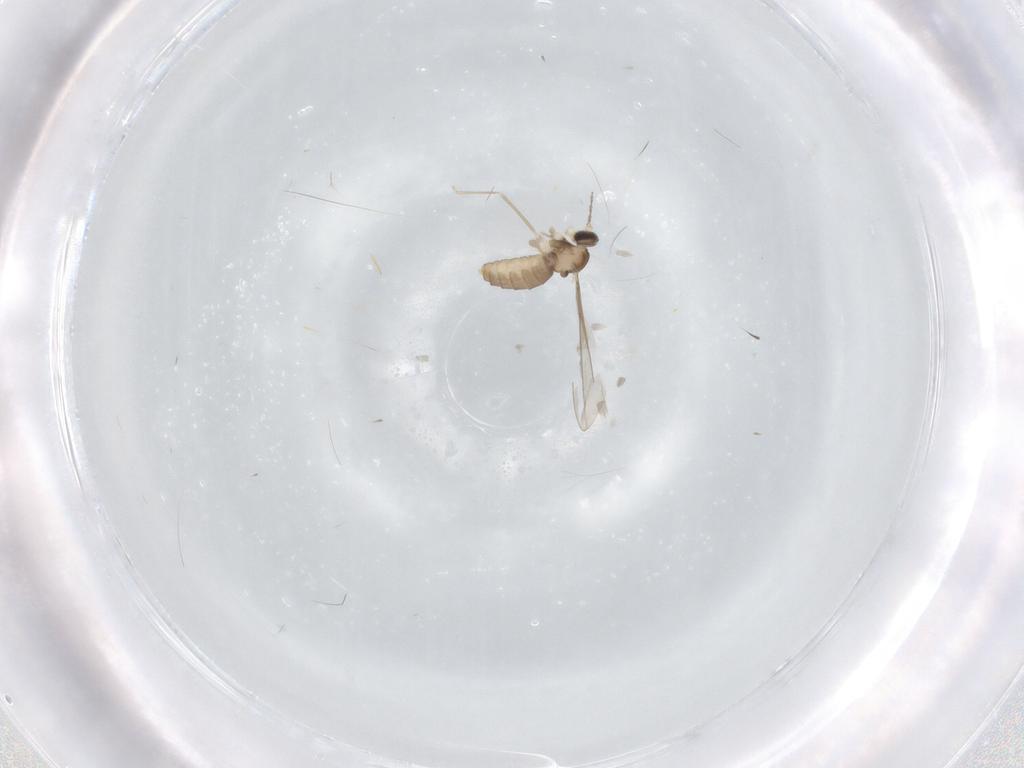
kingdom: Animalia
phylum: Arthropoda
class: Insecta
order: Diptera
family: Cecidomyiidae
